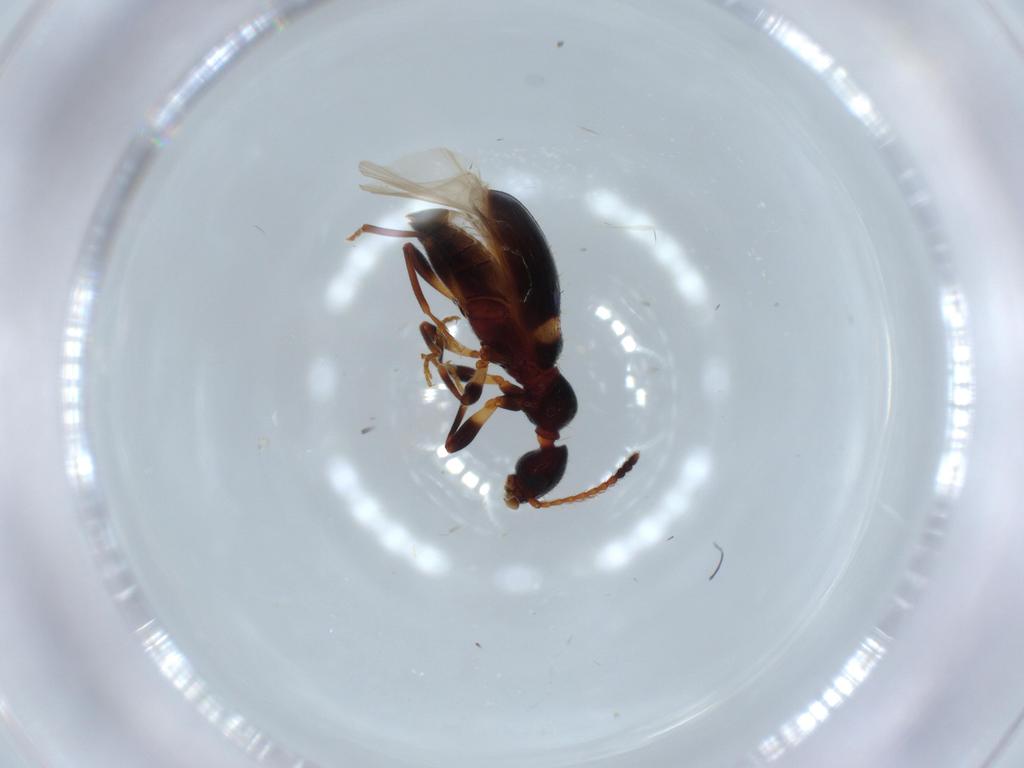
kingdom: Animalia
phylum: Arthropoda
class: Insecta
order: Coleoptera
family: Anthicidae
